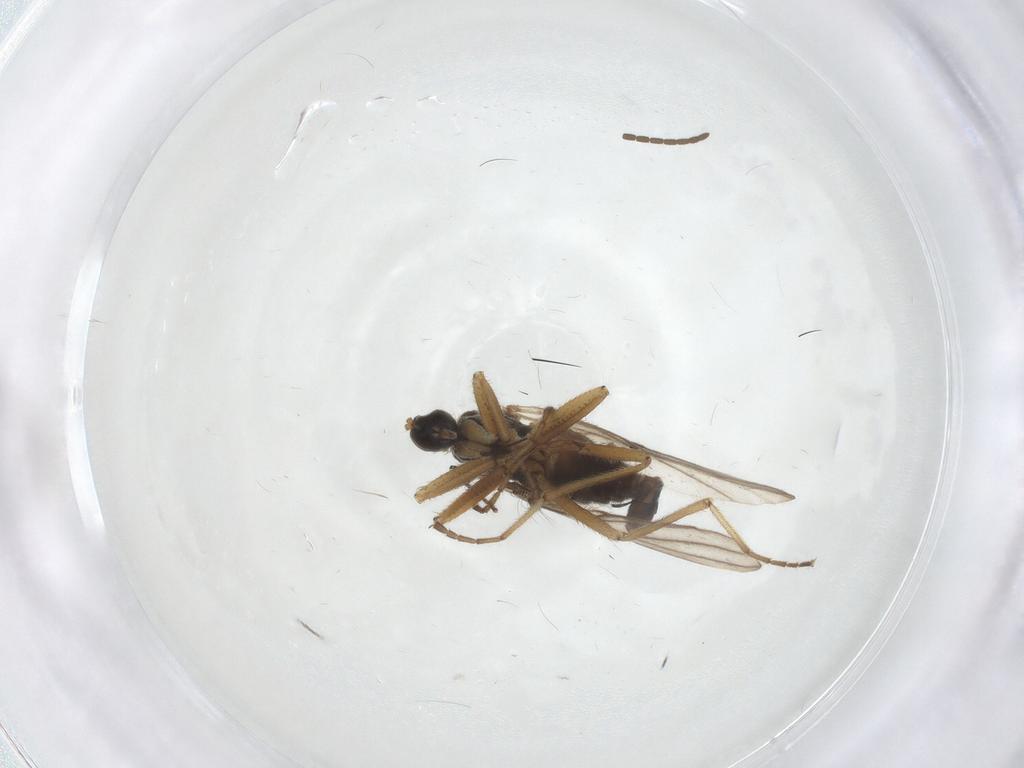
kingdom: Animalia
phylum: Arthropoda
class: Insecta
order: Diptera
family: Hybotidae
